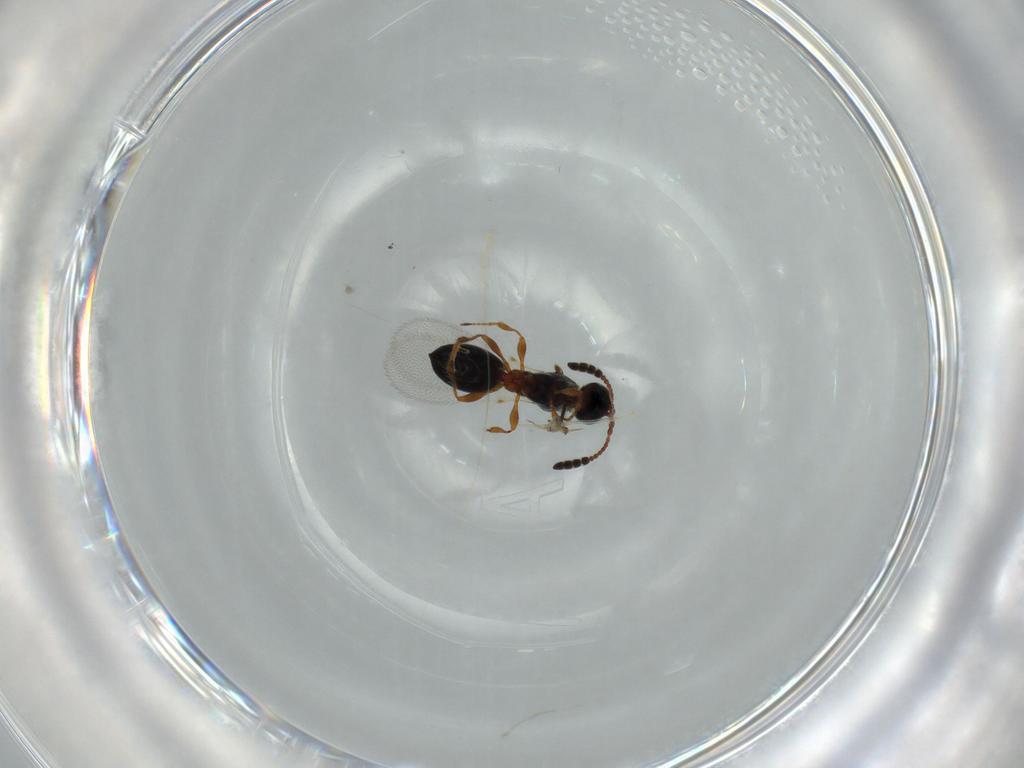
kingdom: Animalia
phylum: Arthropoda
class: Insecta
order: Hymenoptera
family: Diapriidae
